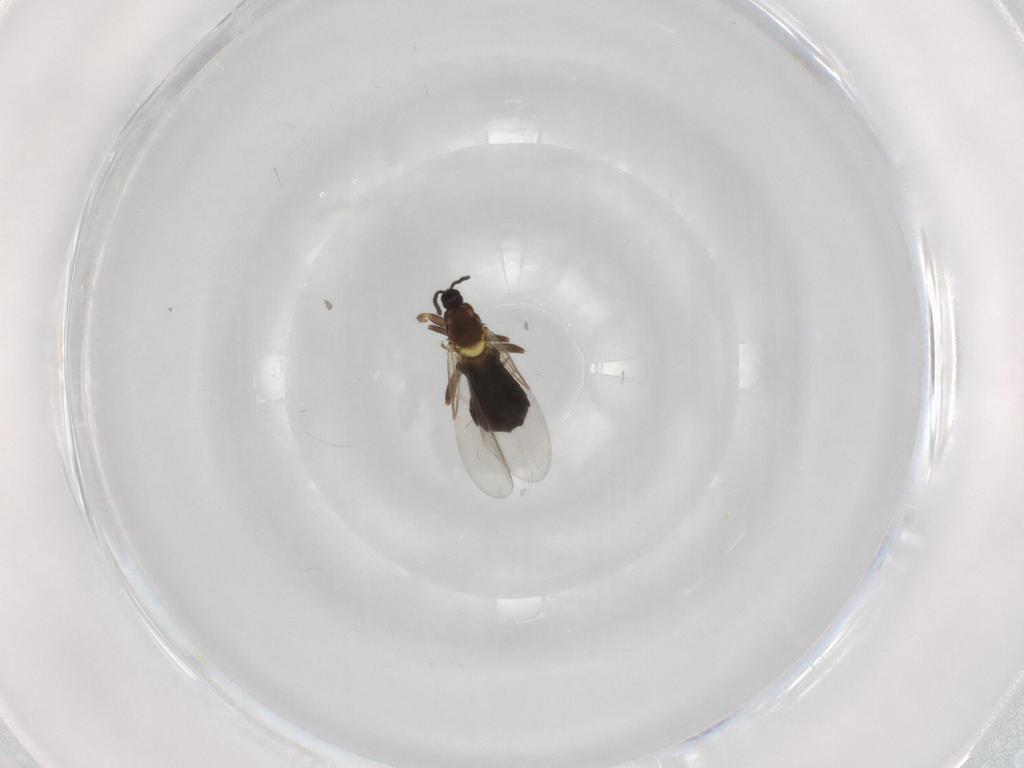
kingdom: Animalia
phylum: Arthropoda
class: Insecta
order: Diptera
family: Scatopsidae
